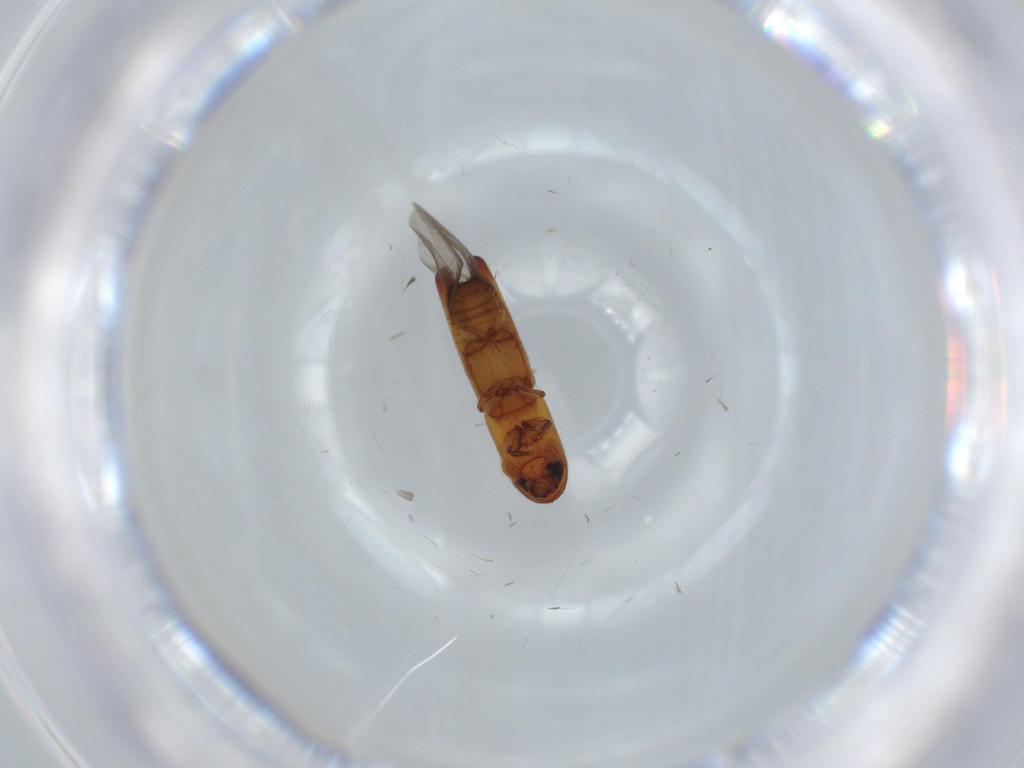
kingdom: Animalia
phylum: Arthropoda
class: Insecta
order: Coleoptera
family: Curculionidae
